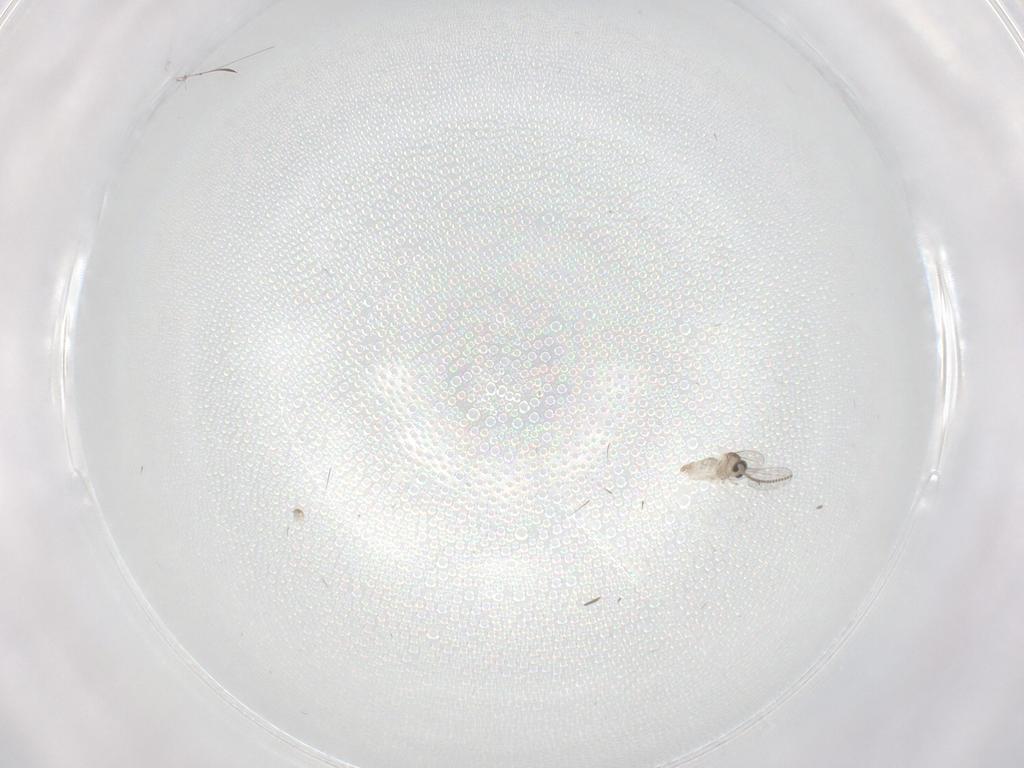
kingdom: Animalia
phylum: Arthropoda
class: Insecta
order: Diptera
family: Cecidomyiidae
